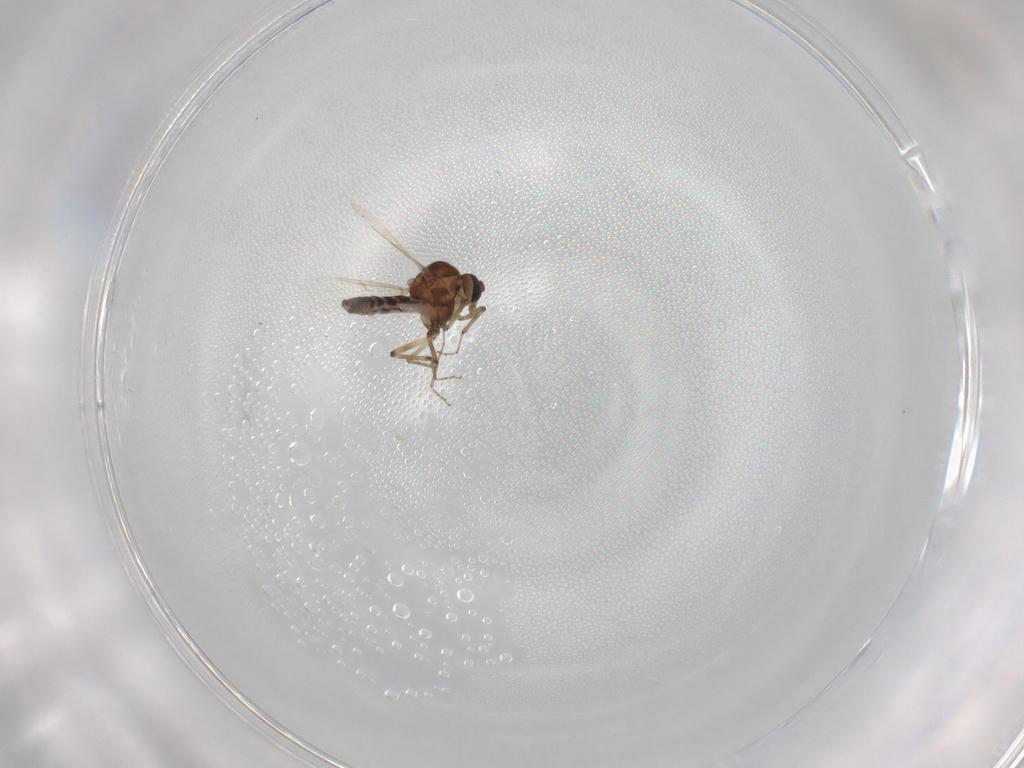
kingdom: Animalia
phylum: Arthropoda
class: Insecta
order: Diptera
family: Ceratopogonidae
